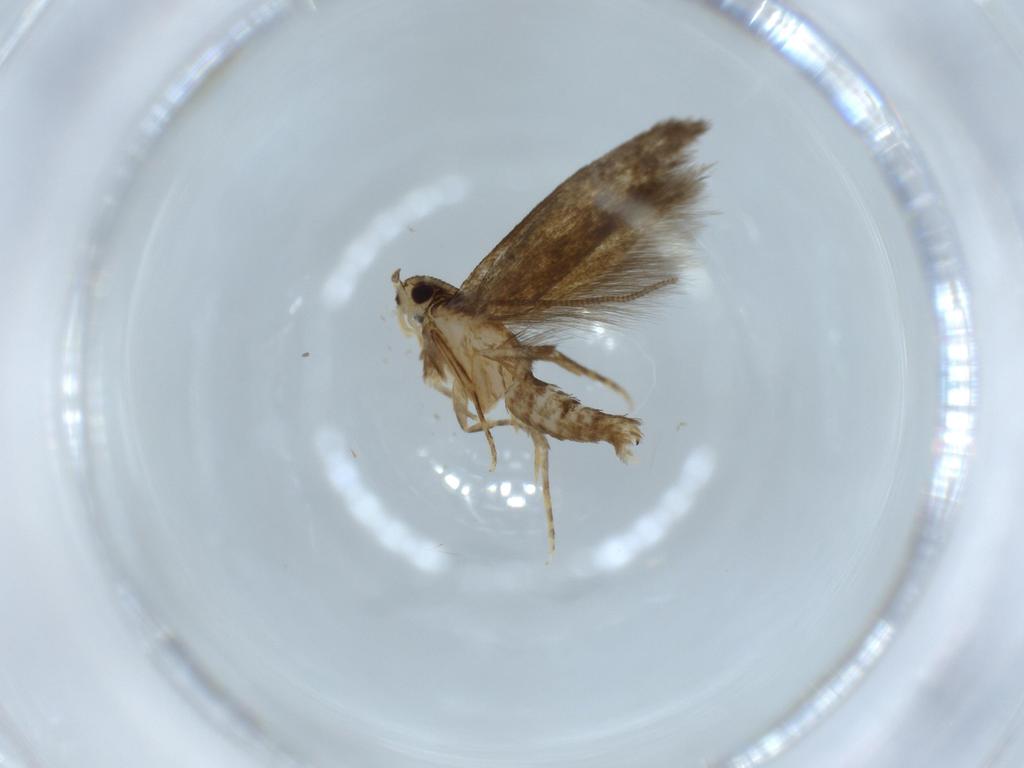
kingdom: Animalia
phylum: Arthropoda
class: Insecta
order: Lepidoptera
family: Tineidae
